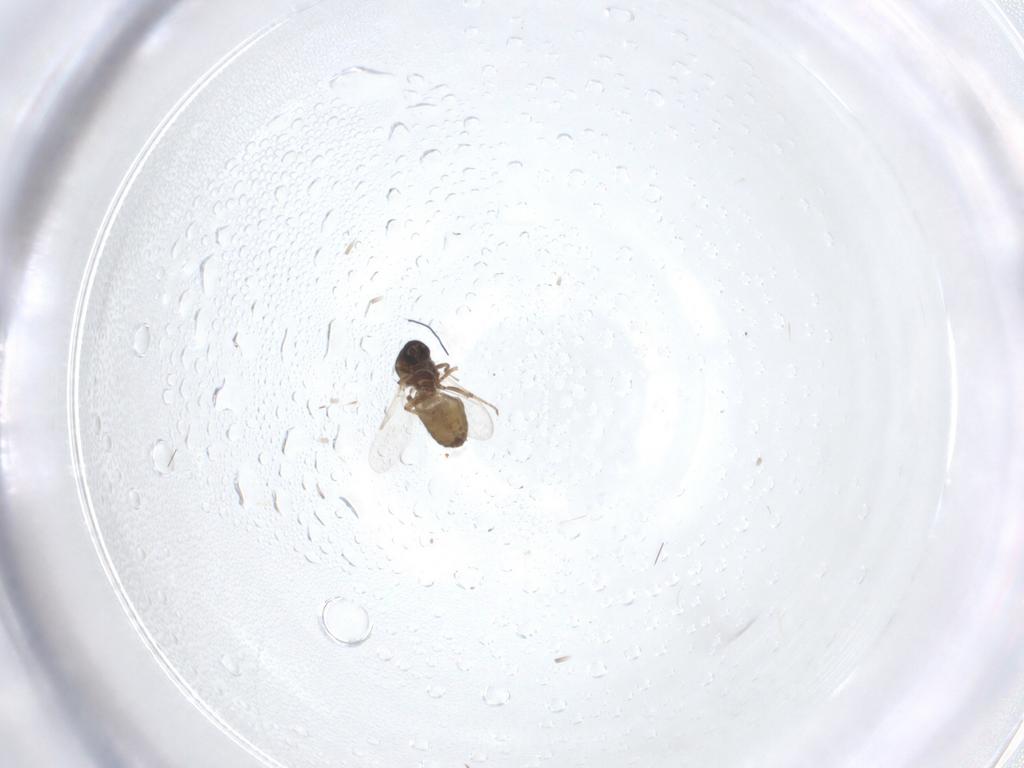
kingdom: Animalia
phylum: Arthropoda
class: Insecta
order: Diptera
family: Ceratopogonidae
